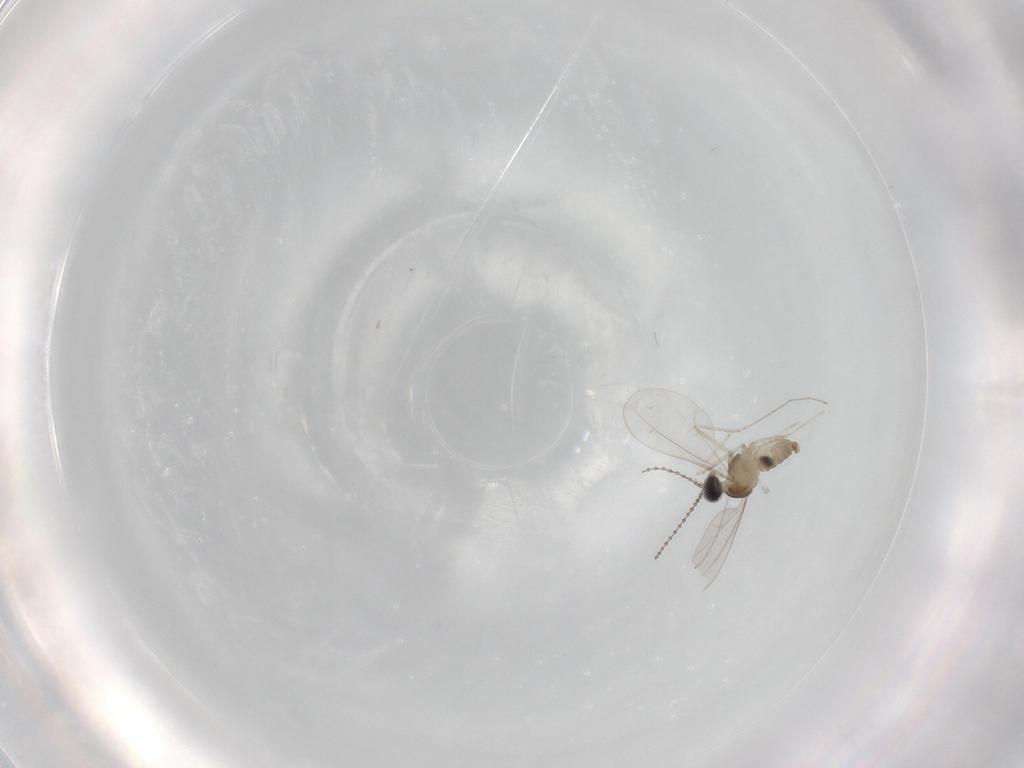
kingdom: Animalia
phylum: Arthropoda
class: Insecta
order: Diptera
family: Phoridae
